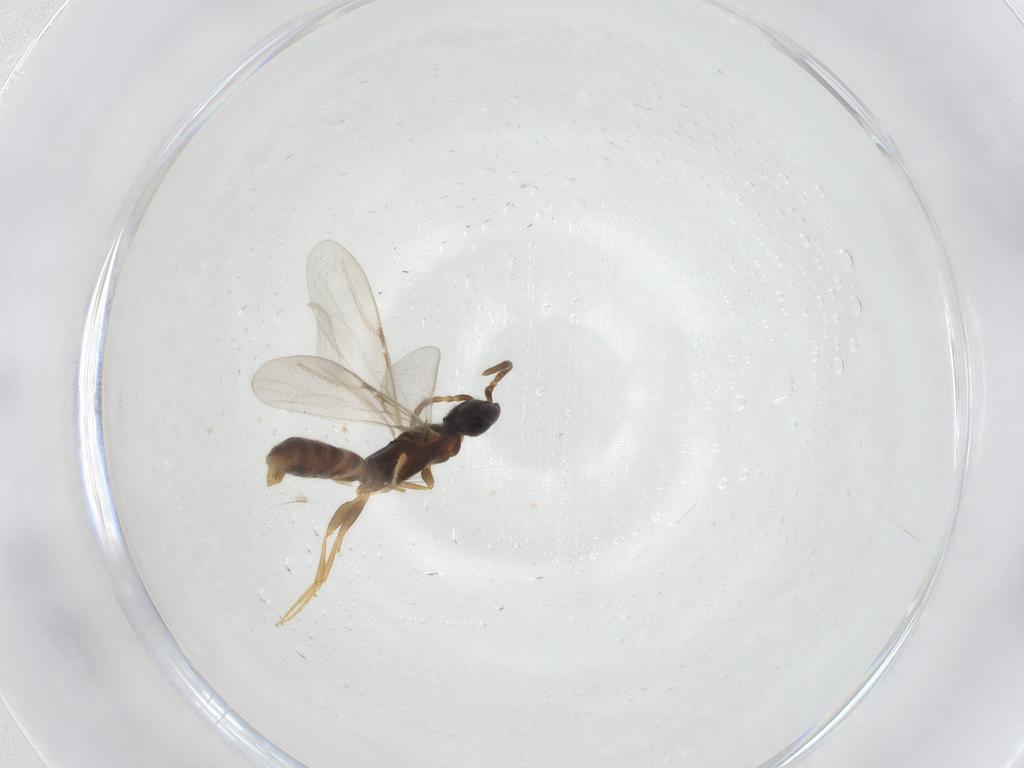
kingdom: Animalia
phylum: Arthropoda
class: Insecta
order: Hymenoptera
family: Bethylidae
